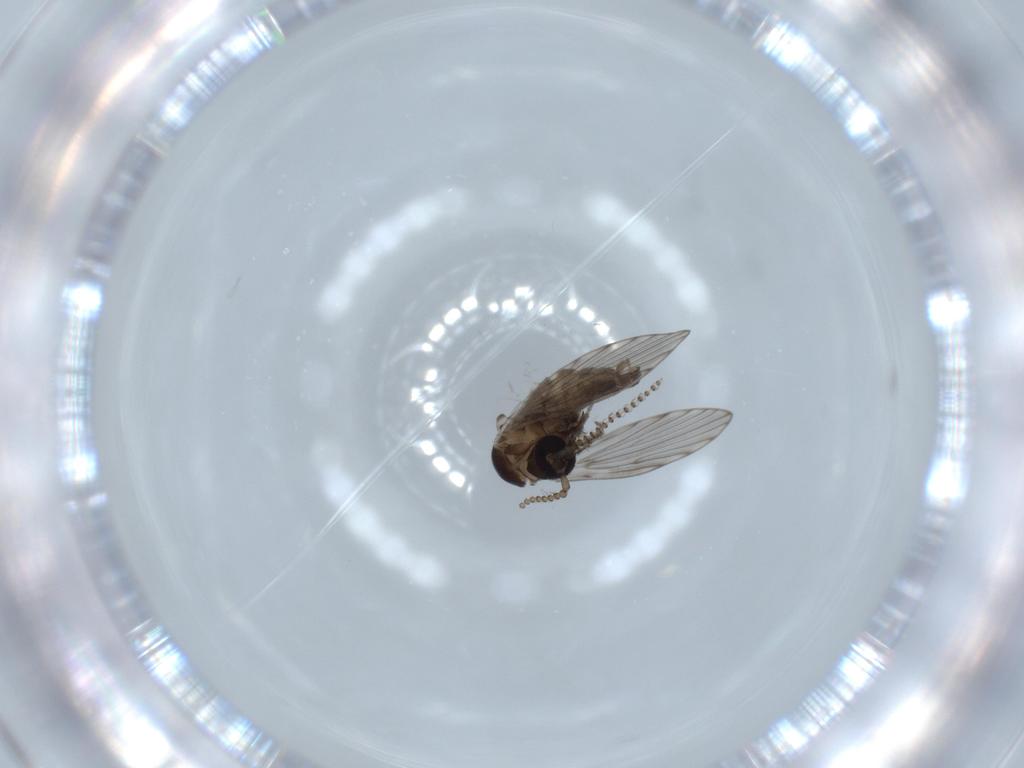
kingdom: Animalia
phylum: Arthropoda
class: Insecta
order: Diptera
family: Psychodidae
